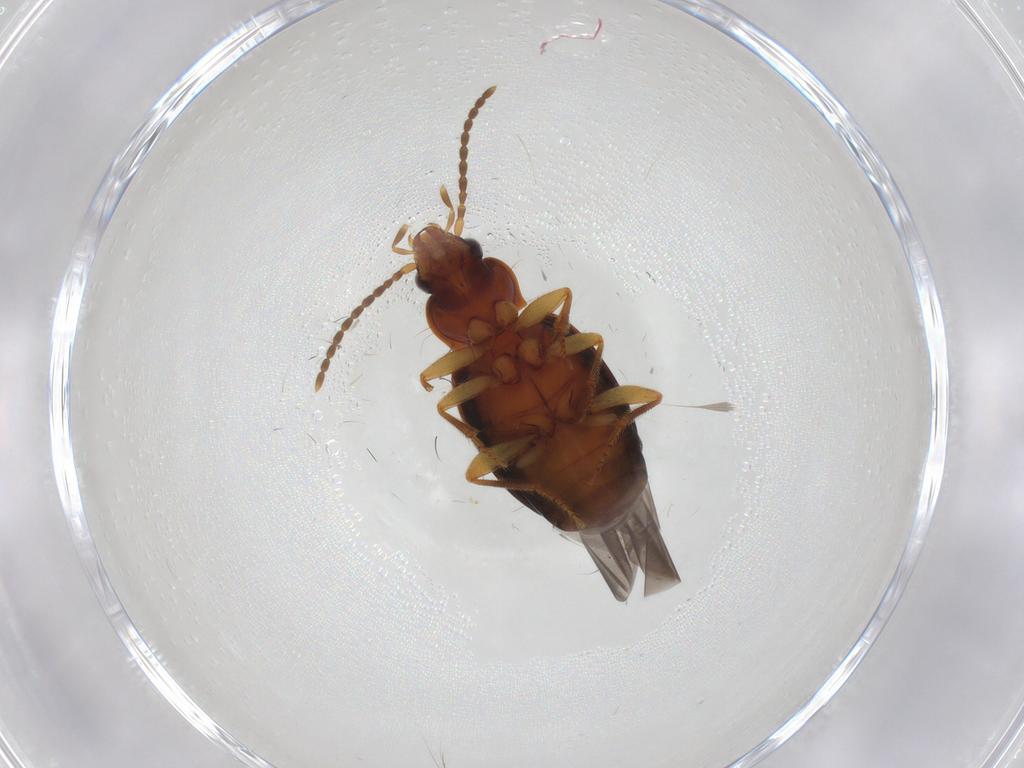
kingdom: Animalia
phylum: Arthropoda
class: Insecta
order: Coleoptera
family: Carabidae
